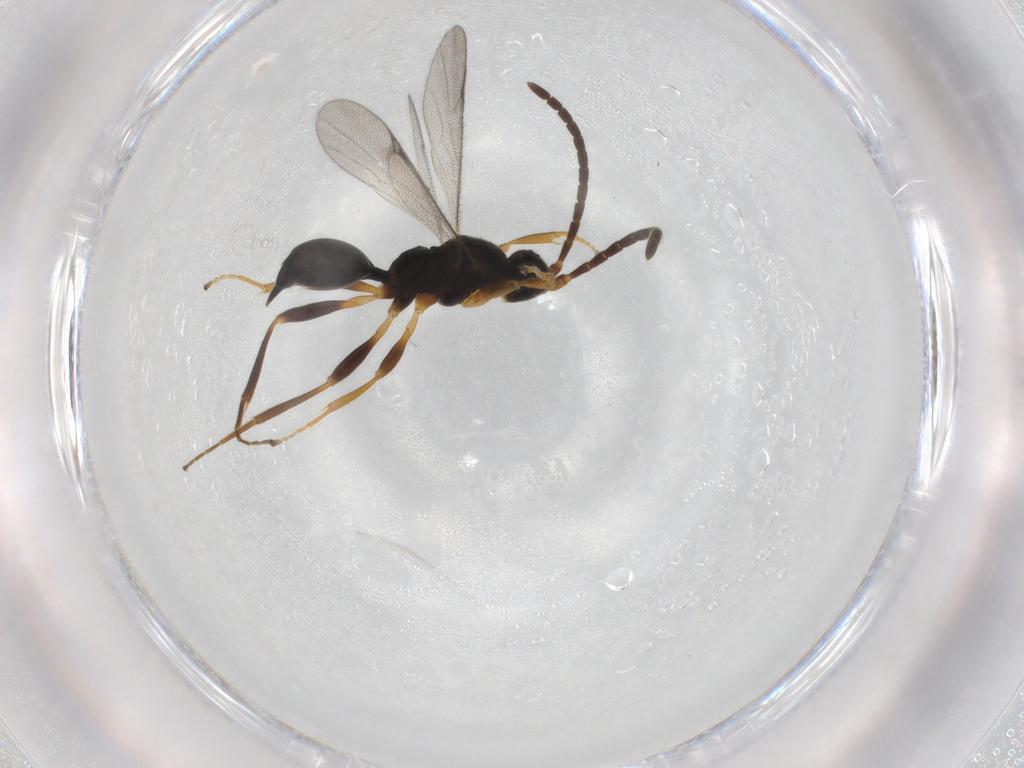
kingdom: Animalia
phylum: Arthropoda
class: Insecta
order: Hymenoptera
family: Proctotrupidae
